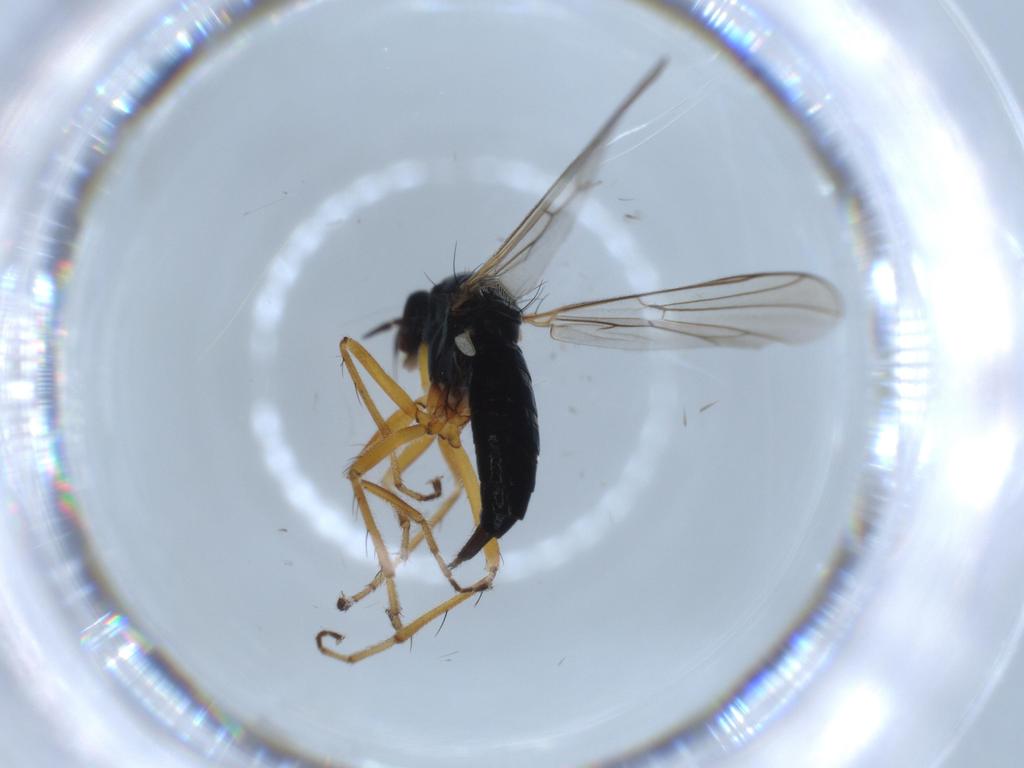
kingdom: Animalia
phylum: Arthropoda
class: Insecta
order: Diptera
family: Hybotidae
